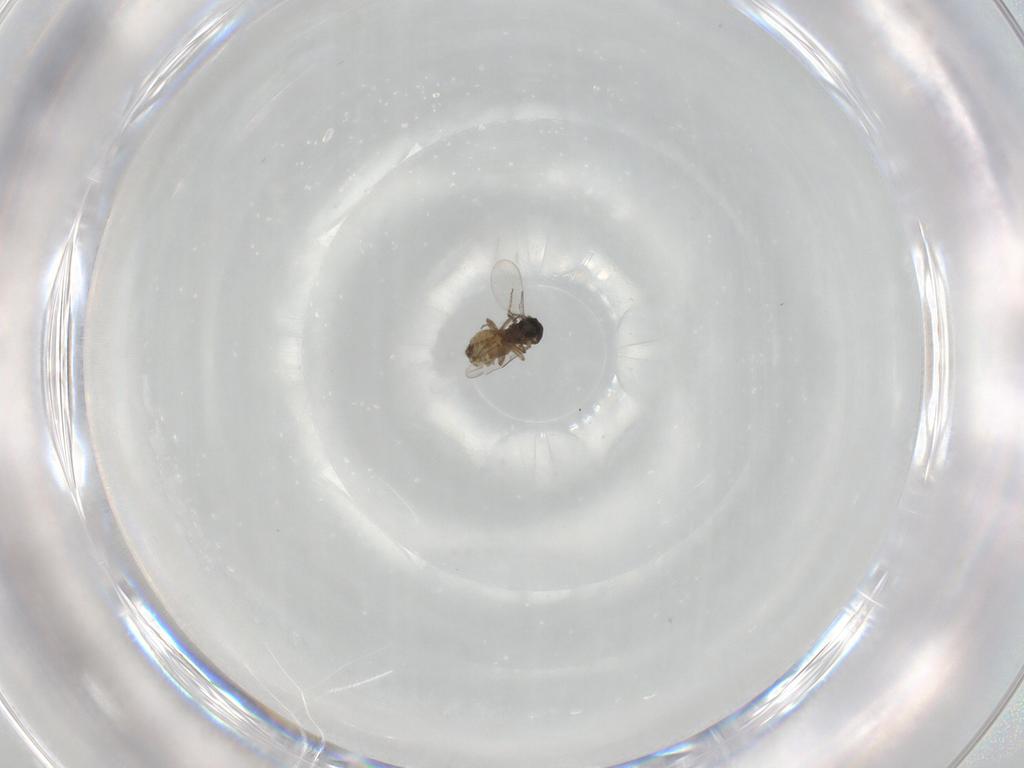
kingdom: Animalia
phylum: Arthropoda
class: Insecta
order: Diptera
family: Ceratopogonidae
